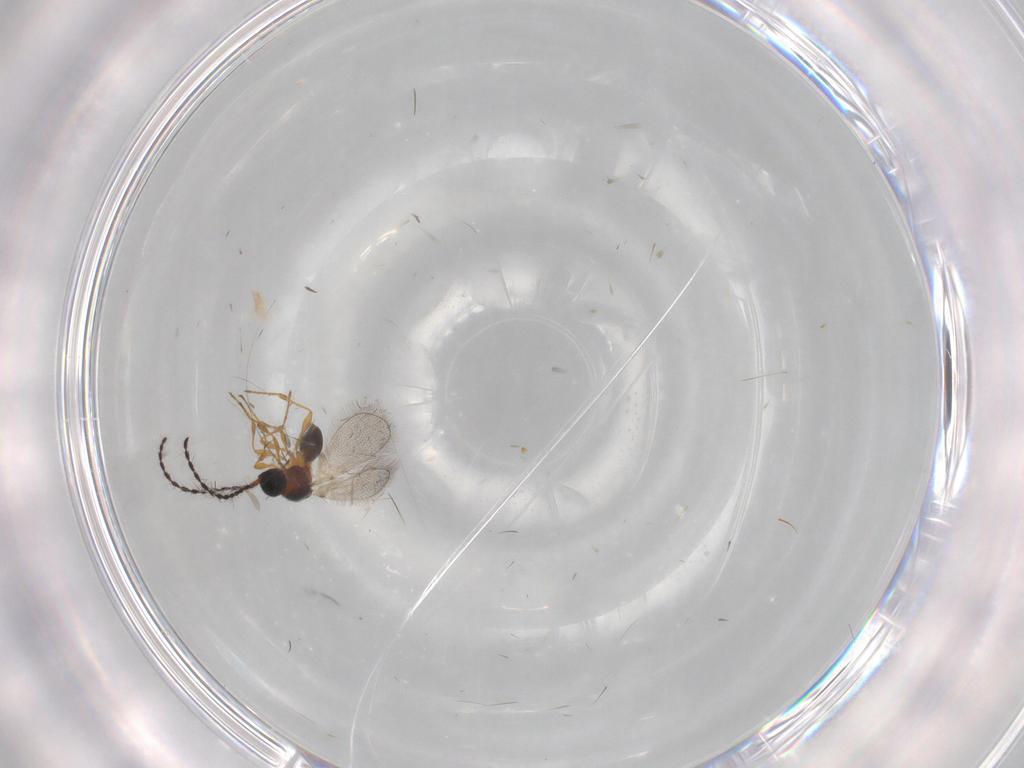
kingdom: Animalia
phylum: Arthropoda
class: Insecta
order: Hymenoptera
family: Diapriidae
